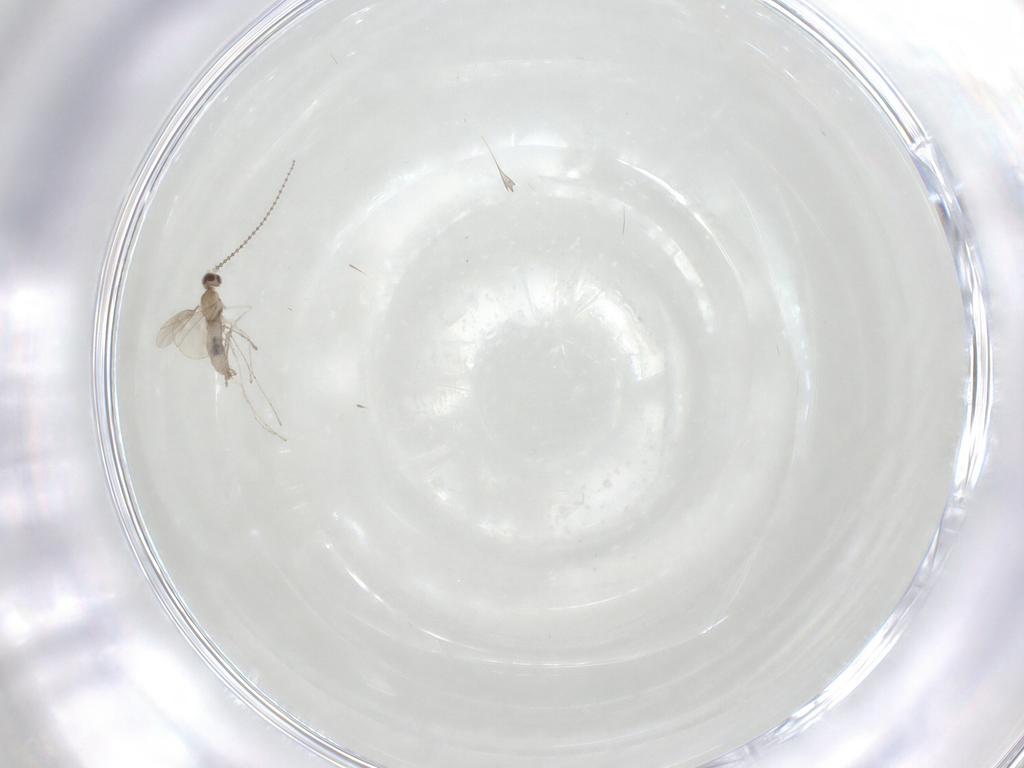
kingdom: Animalia
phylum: Arthropoda
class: Insecta
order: Diptera
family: Cecidomyiidae
